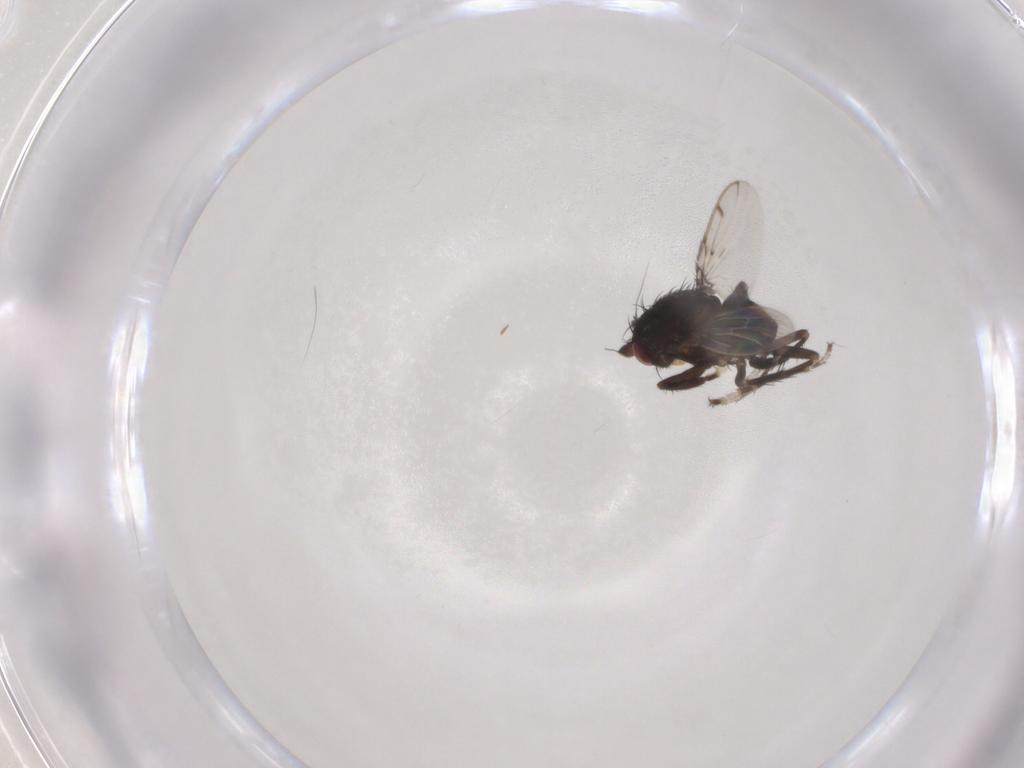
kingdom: Animalia
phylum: Arthropoda
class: Insecta
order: Diptera
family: Sphaeroceridae
